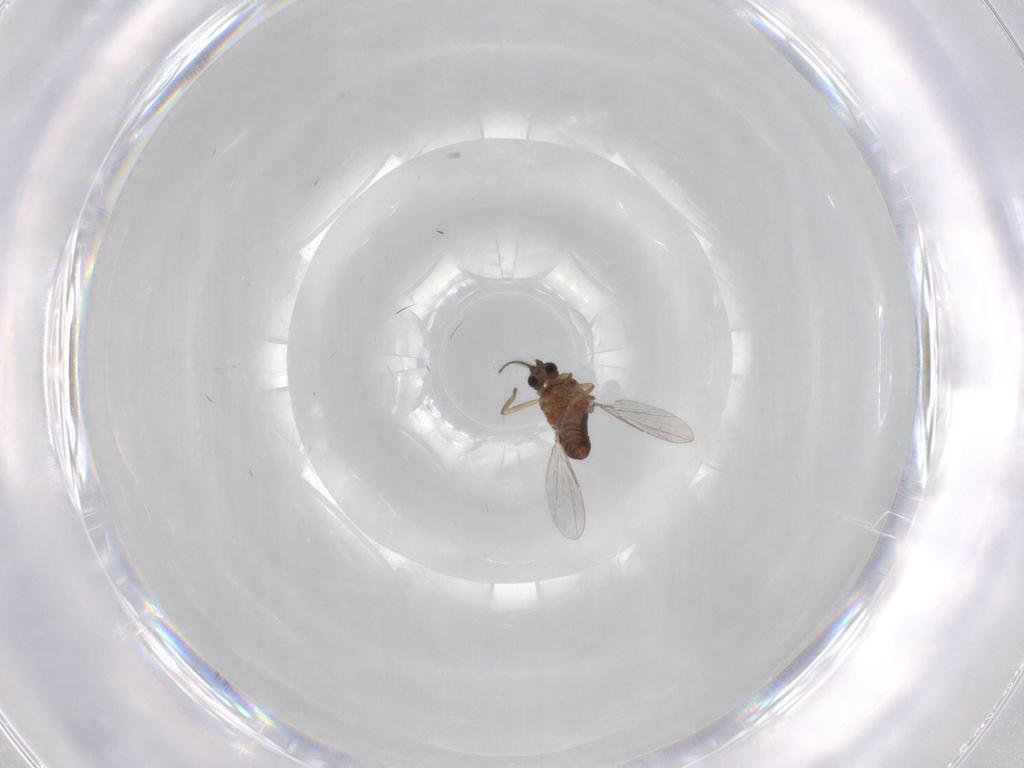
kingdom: Animalia
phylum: Arthropoda
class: Insecta
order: Diptera
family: Ceratopogonidae
